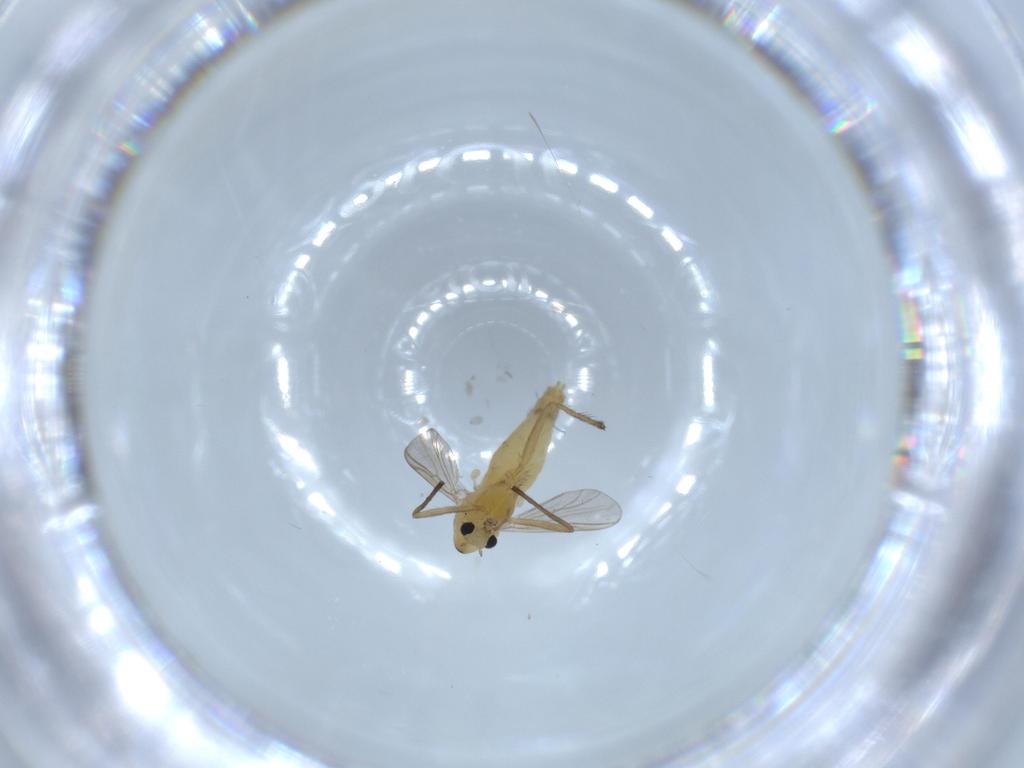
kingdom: Animalia
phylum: Arthropoda
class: Insecta
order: Diptera
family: Chironomidae
